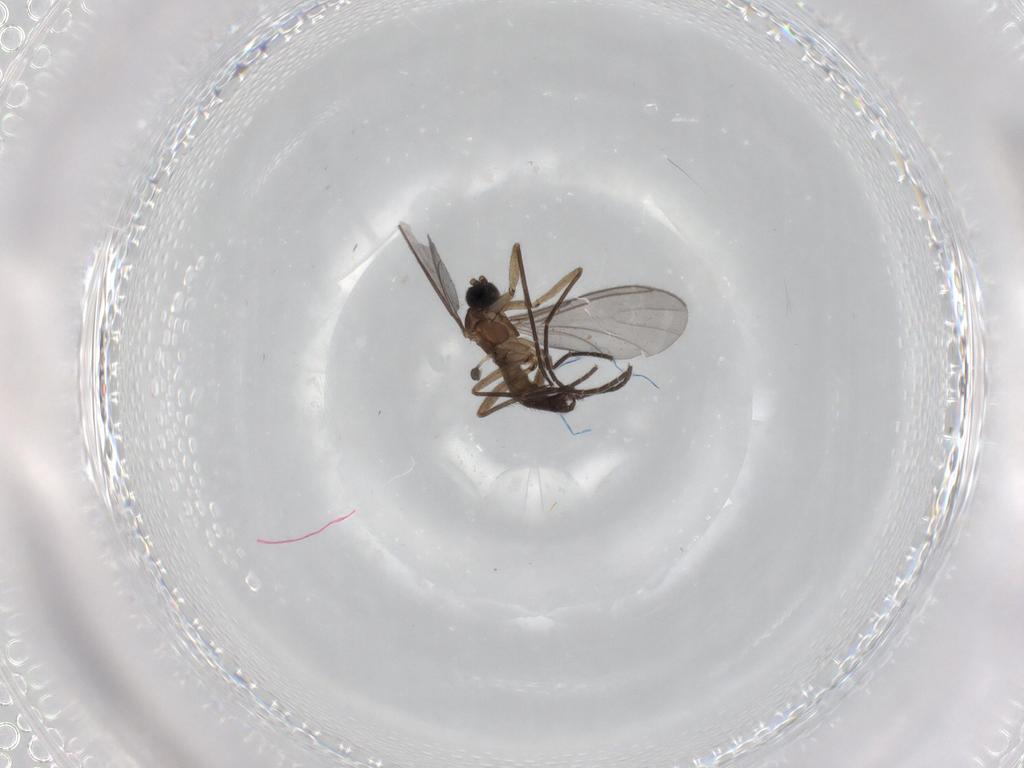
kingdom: Animalia
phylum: Arthropoda
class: Insecta
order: Diptera
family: Sciaridae
